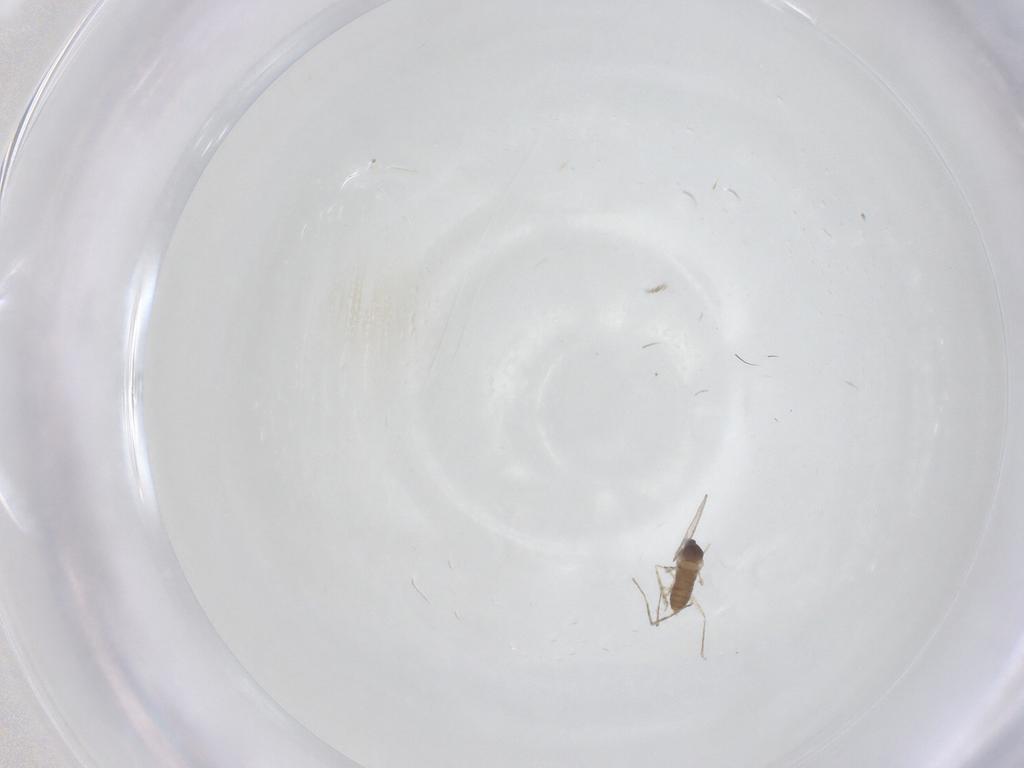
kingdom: Animalia
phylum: Arthropoda
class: Insecta
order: Diptera
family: Cecidomyiidae
